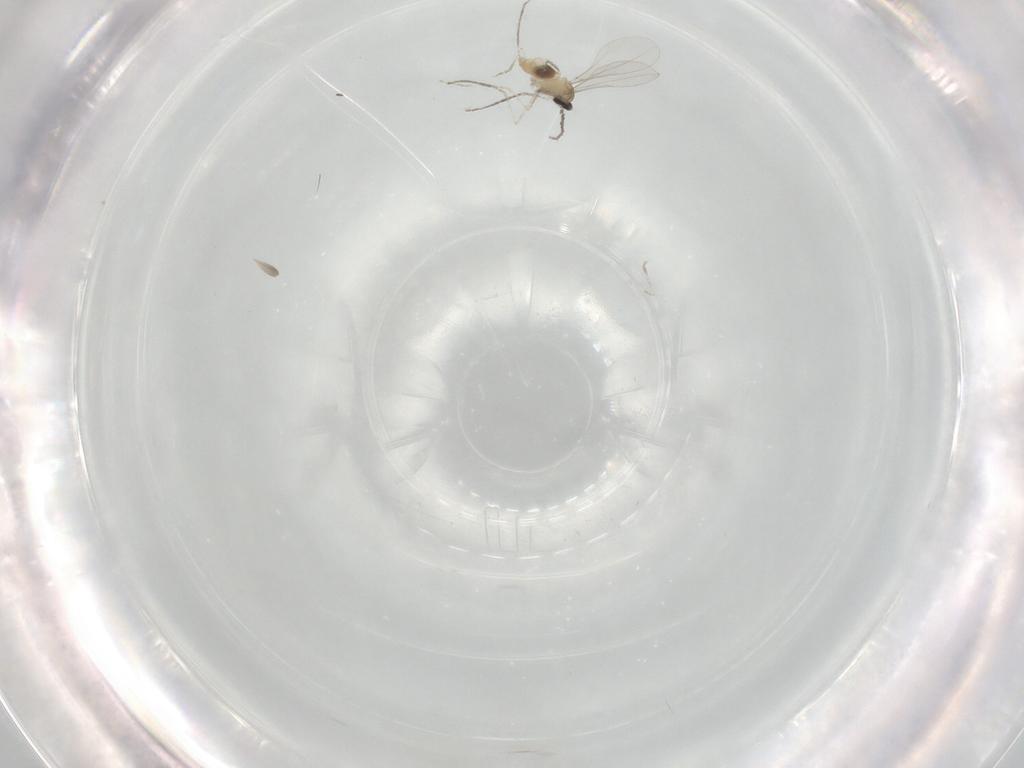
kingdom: Animalia
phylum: Arthropoda
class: Insecta
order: Diptera
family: Cecidomyiidae
